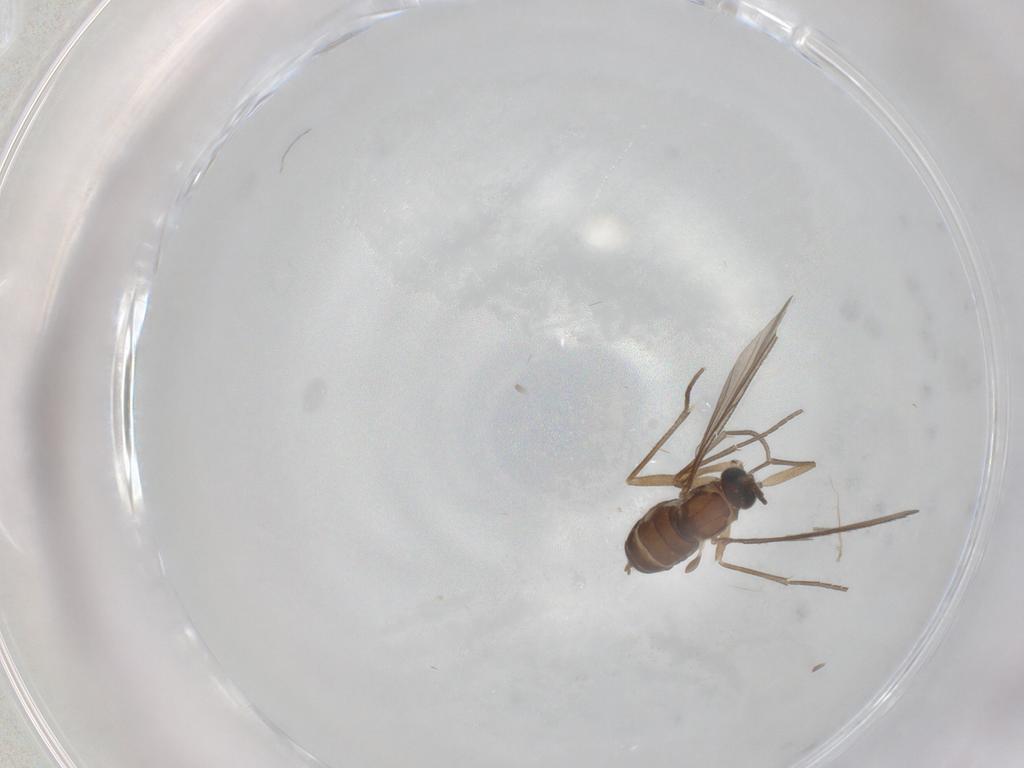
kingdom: Animalia
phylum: Arthropoda
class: Insecta
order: Diptera
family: Sciaridae
